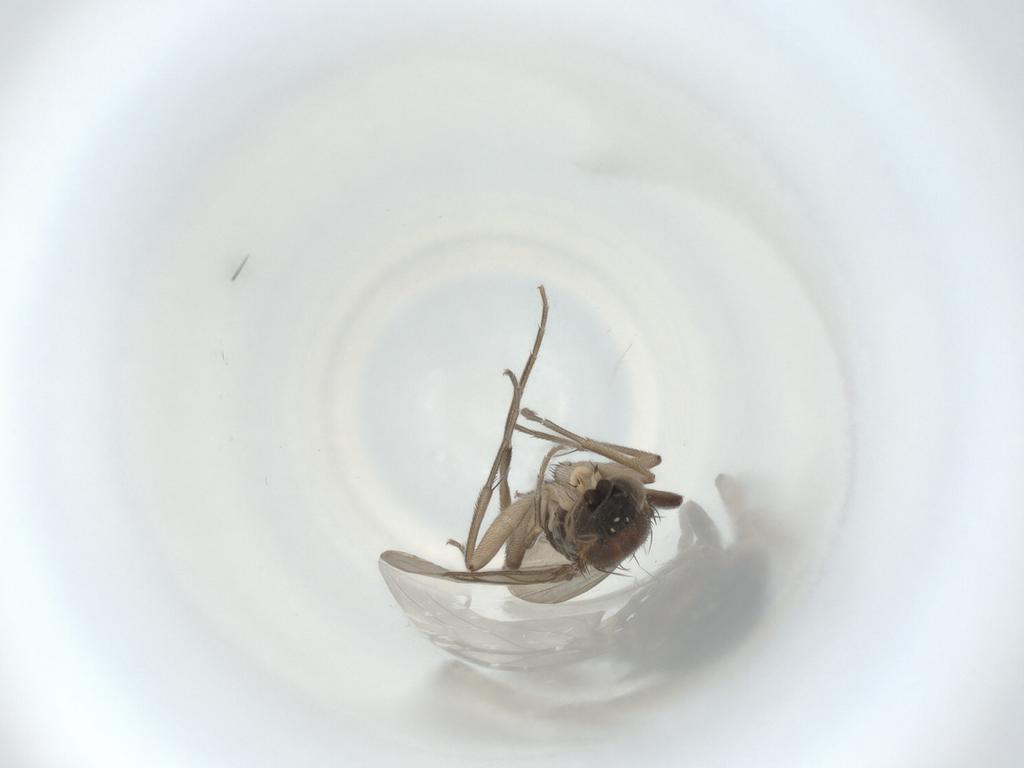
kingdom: Animalia
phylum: Arthropoda
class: Insecta
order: Diptera
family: Phoridae
